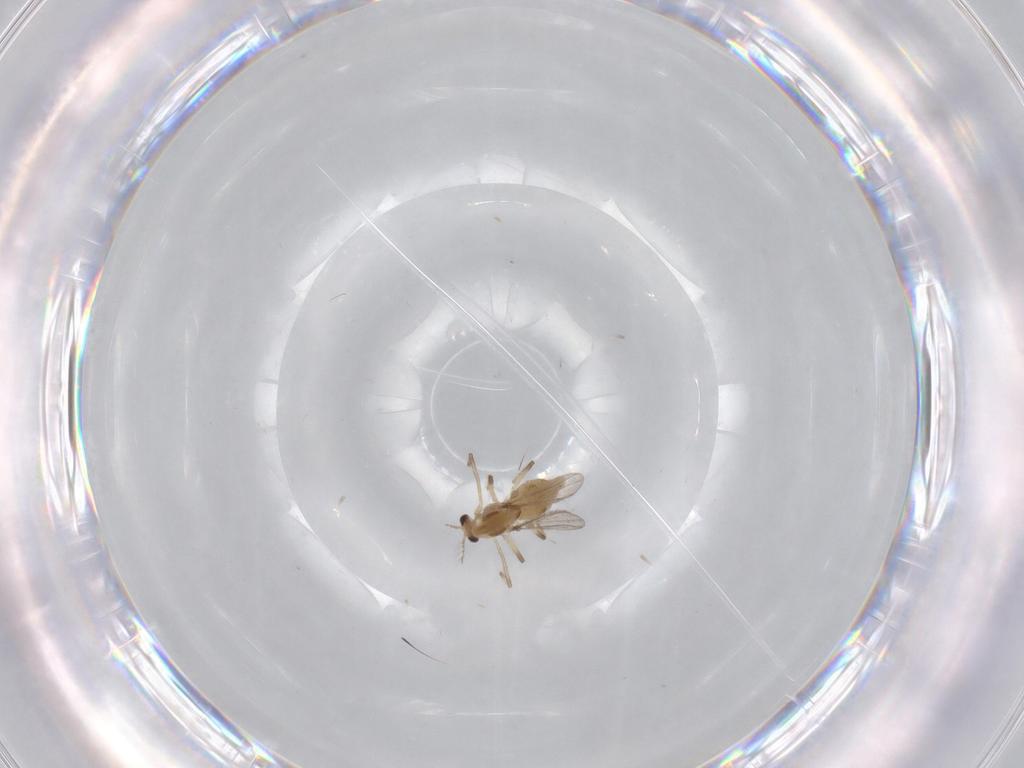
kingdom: Animalia
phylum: Arthropoda
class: Insecta
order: Diptera
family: Chironomidae
